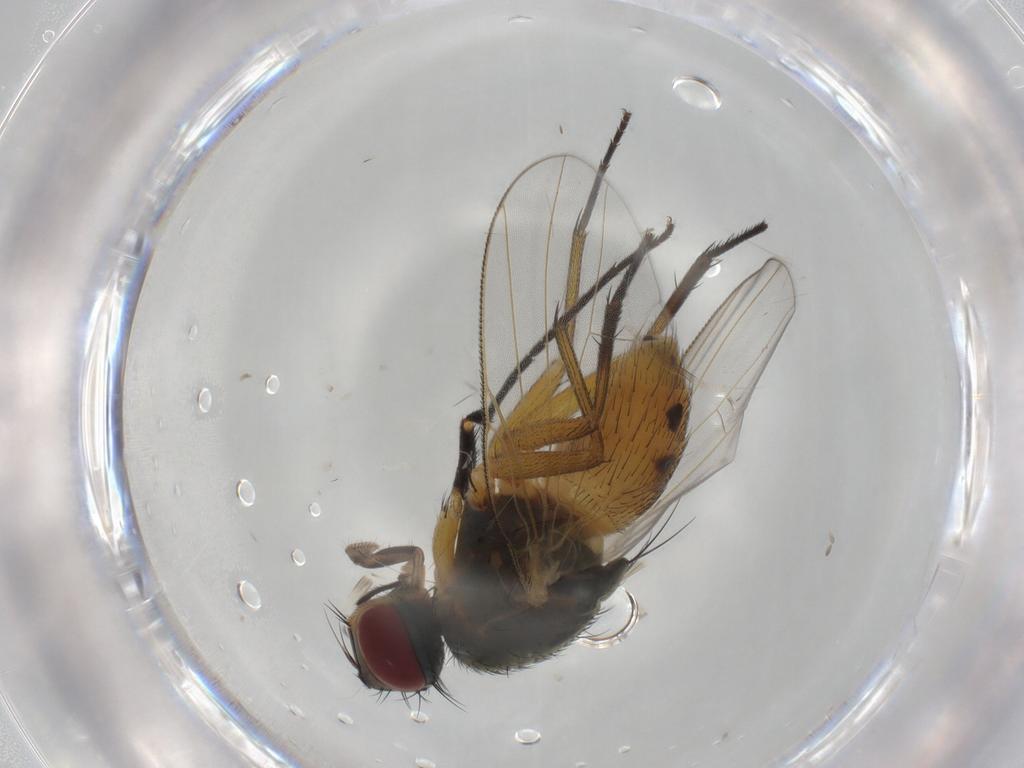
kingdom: Animalia
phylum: Arthropoda
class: Insecta
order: Diptera
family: Muscidae
